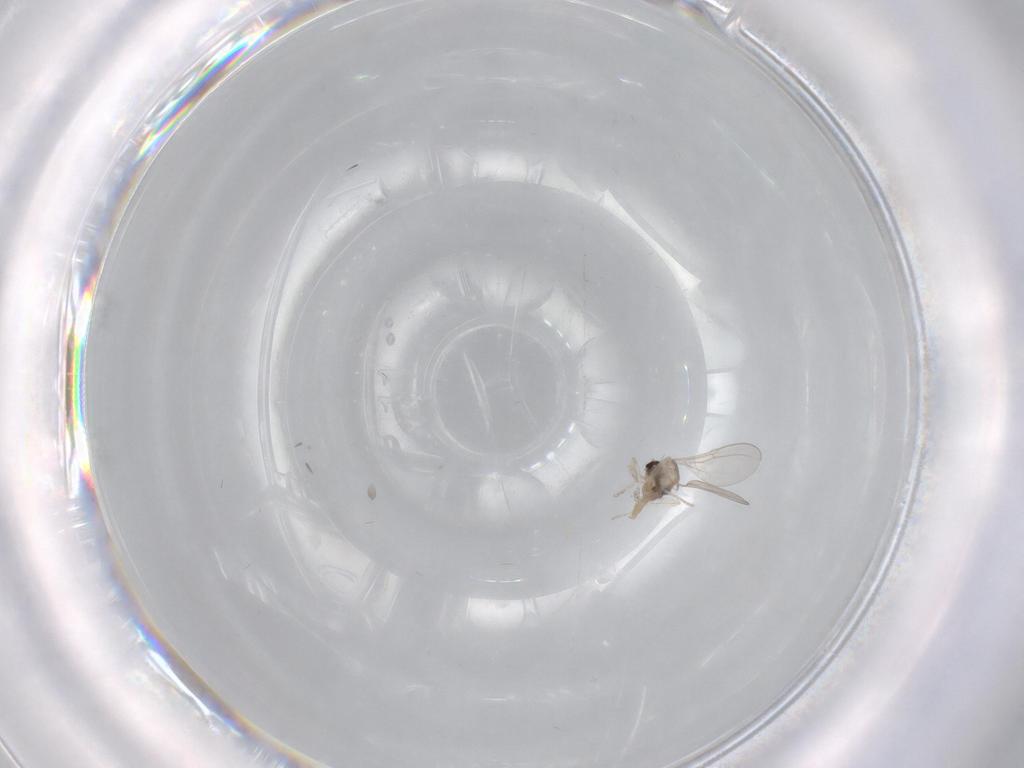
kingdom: Animalia
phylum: Arthropoda
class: Insecta
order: Diptera
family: Cecidomyiidae
